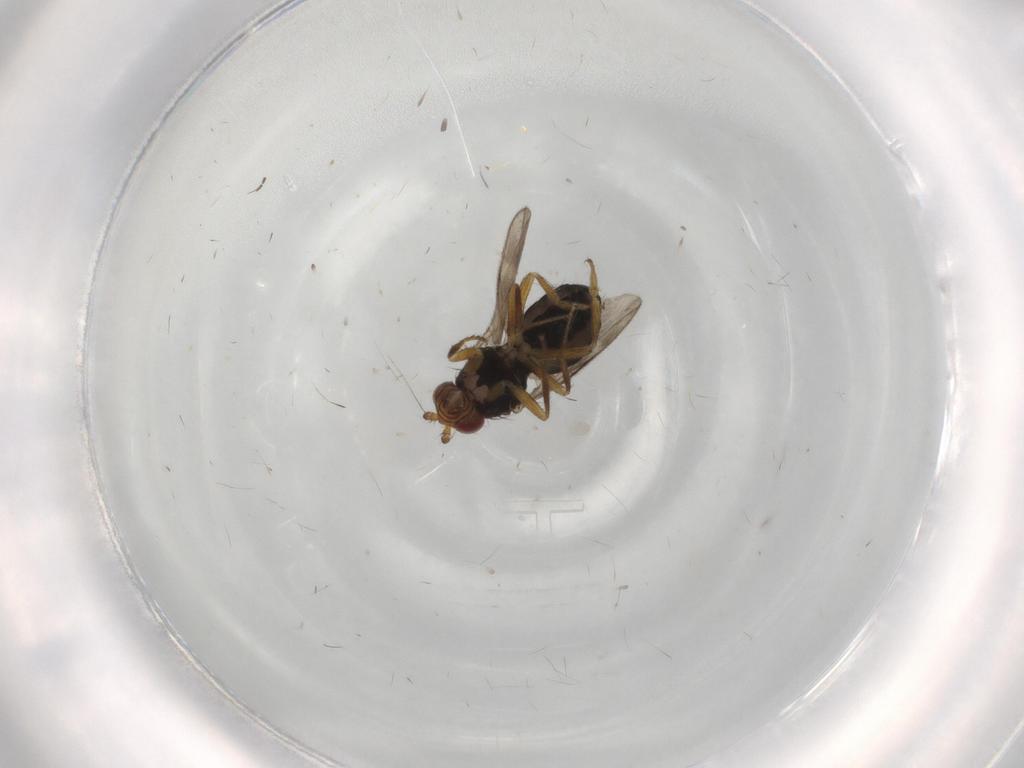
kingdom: Animalia
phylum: Arthropoda
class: Insecta
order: Diptera
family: Sphaeroceridae
